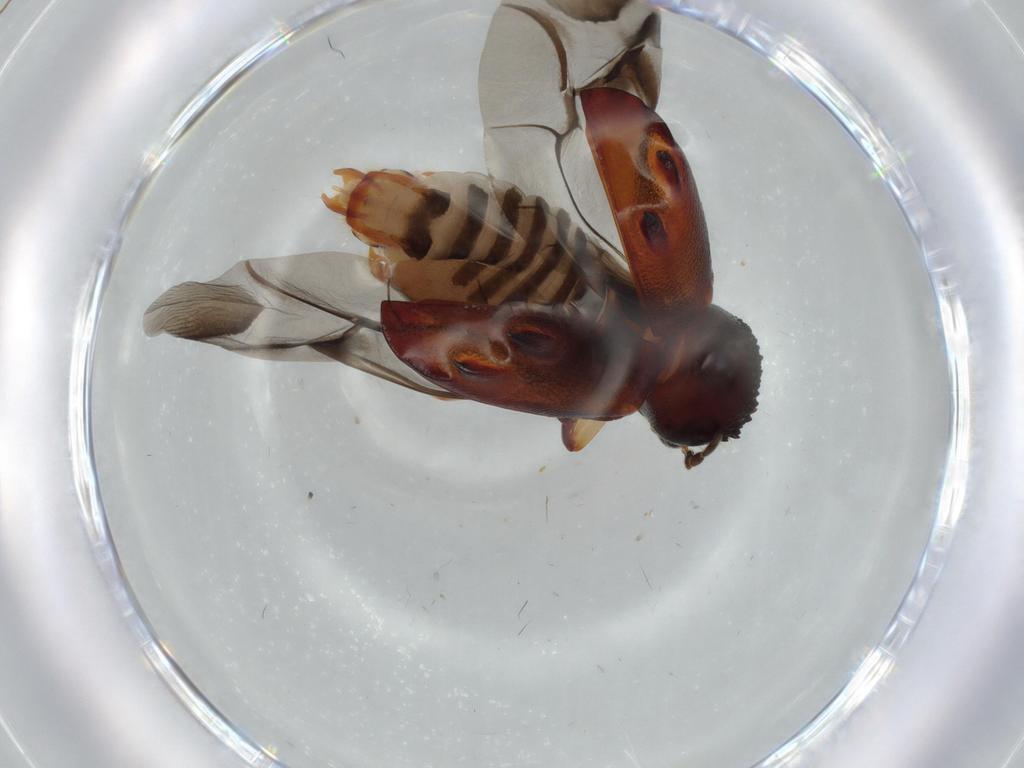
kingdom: Animalia
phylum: Arthropoda
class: Insecta
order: Coleoptera
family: Bostrichidae
